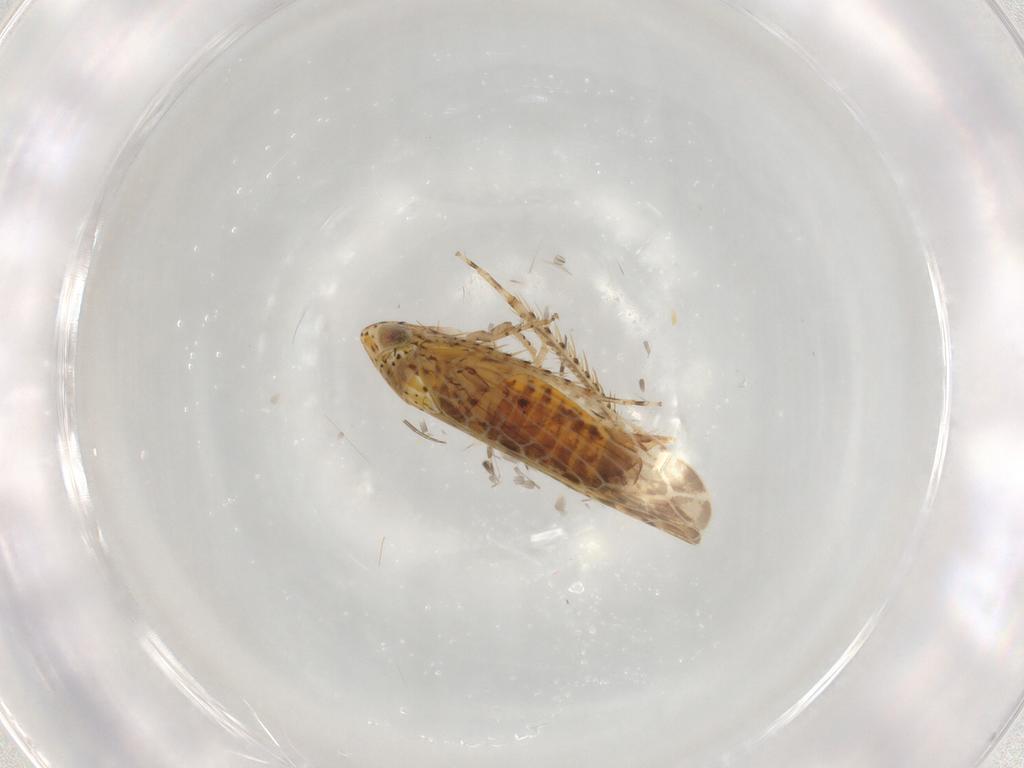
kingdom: Animalia
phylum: Arthropoda
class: Insecta
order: Hemiptera
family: Cicadellidae
